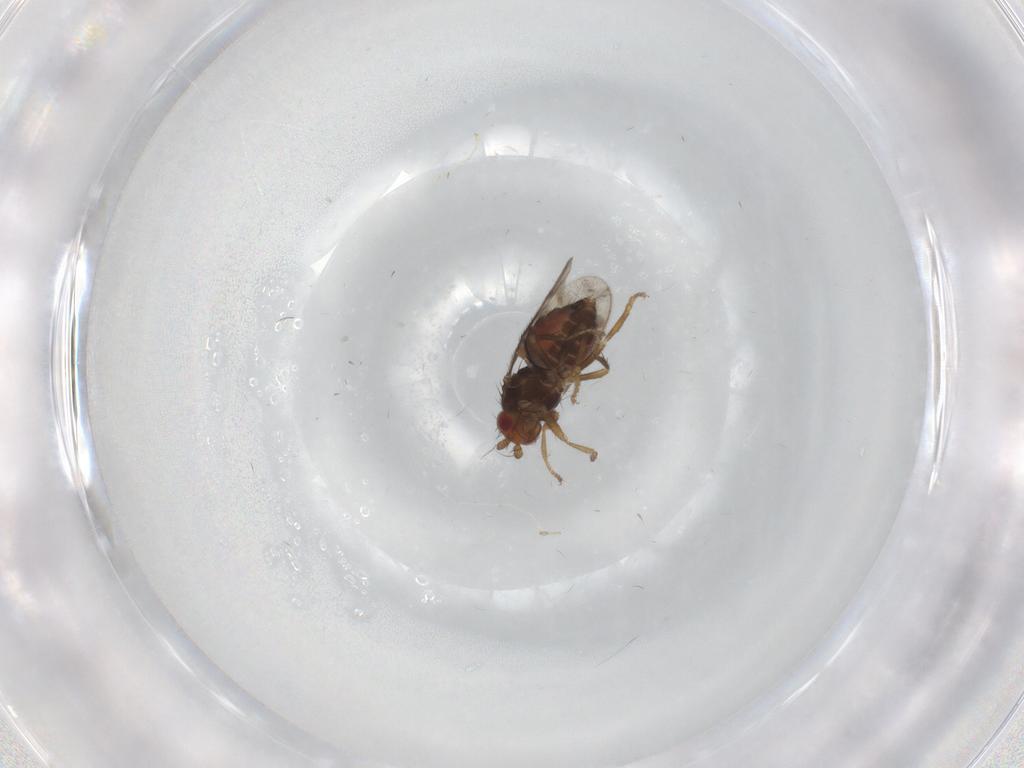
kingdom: Animalia
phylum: Arthropoda
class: Insecta
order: Diptera
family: Sphaeroceridae
